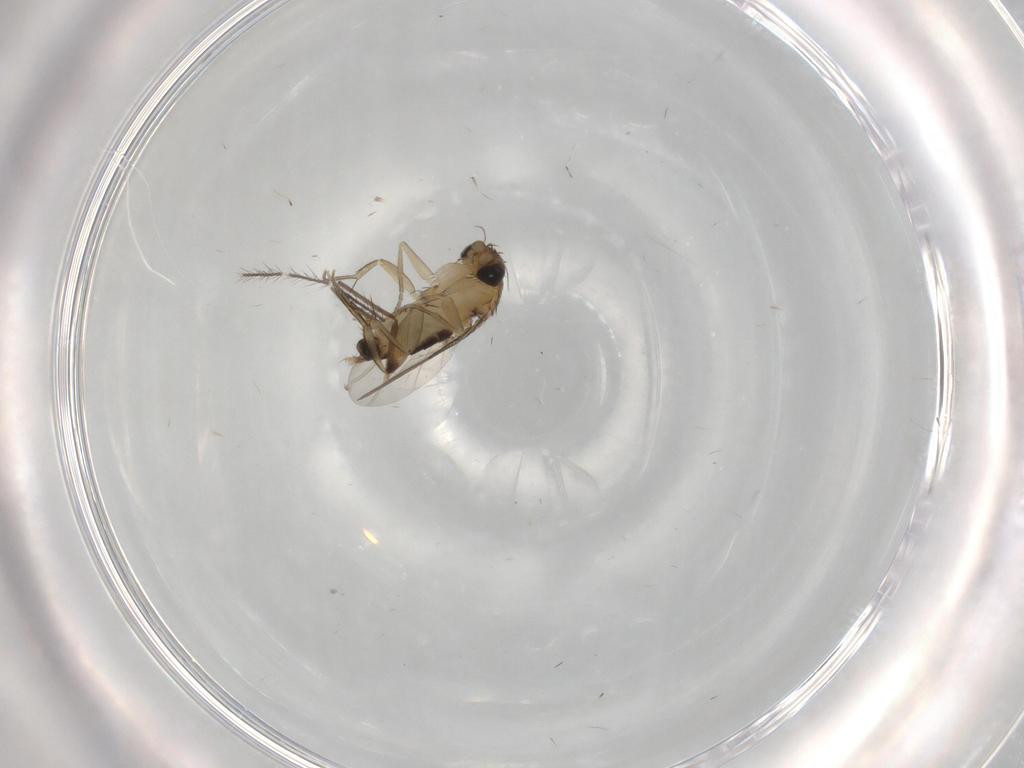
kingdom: Animalia
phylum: Arthropoda
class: Insecta
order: Diptera
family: Phoridae
